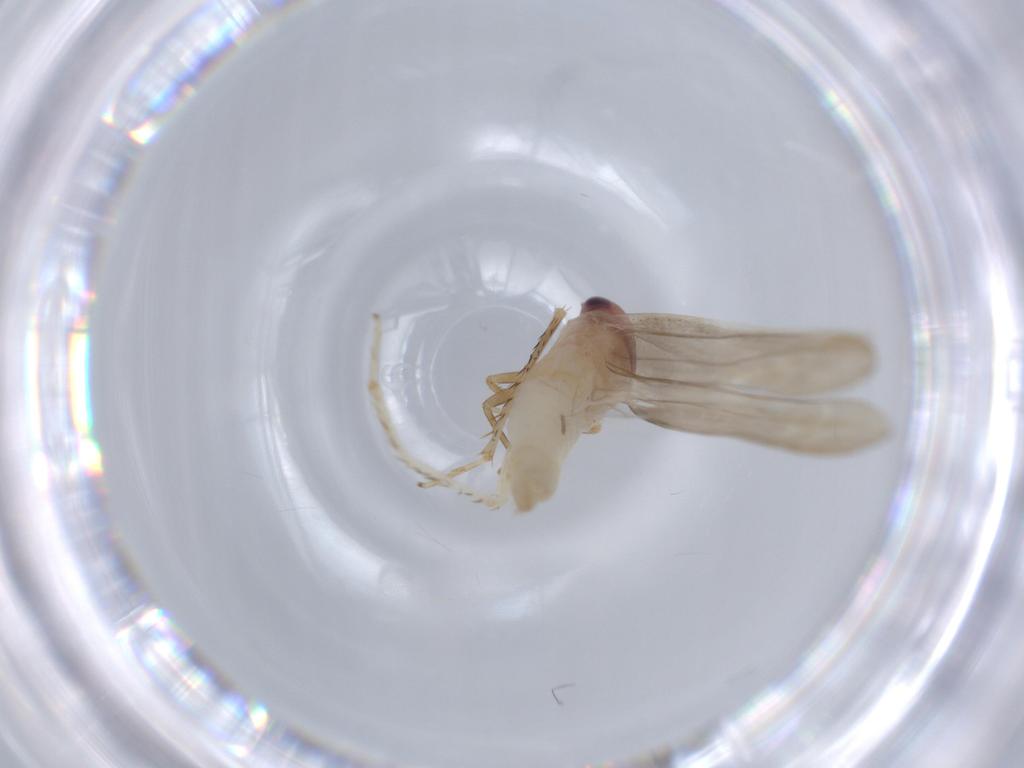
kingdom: Animalia
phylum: Arthropoda
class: Insecta
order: Hemiptera
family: Cicadellidae
